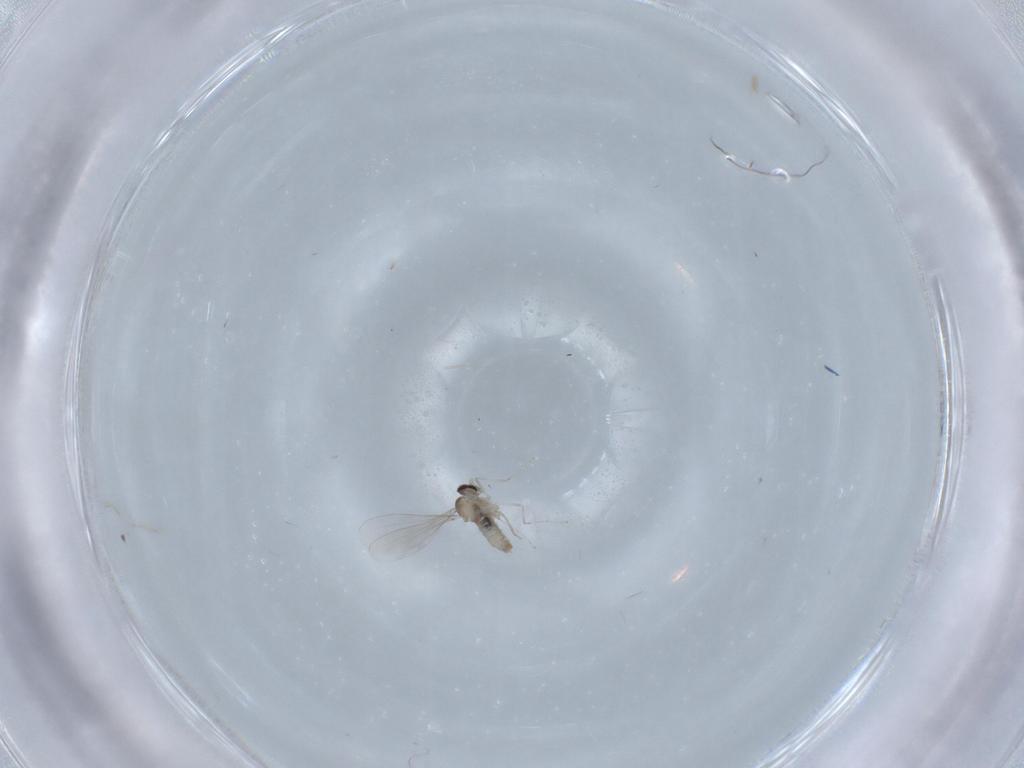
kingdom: Animalia
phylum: Arthropoda
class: Insecta
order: Diptera
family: Cecidomyiidae
